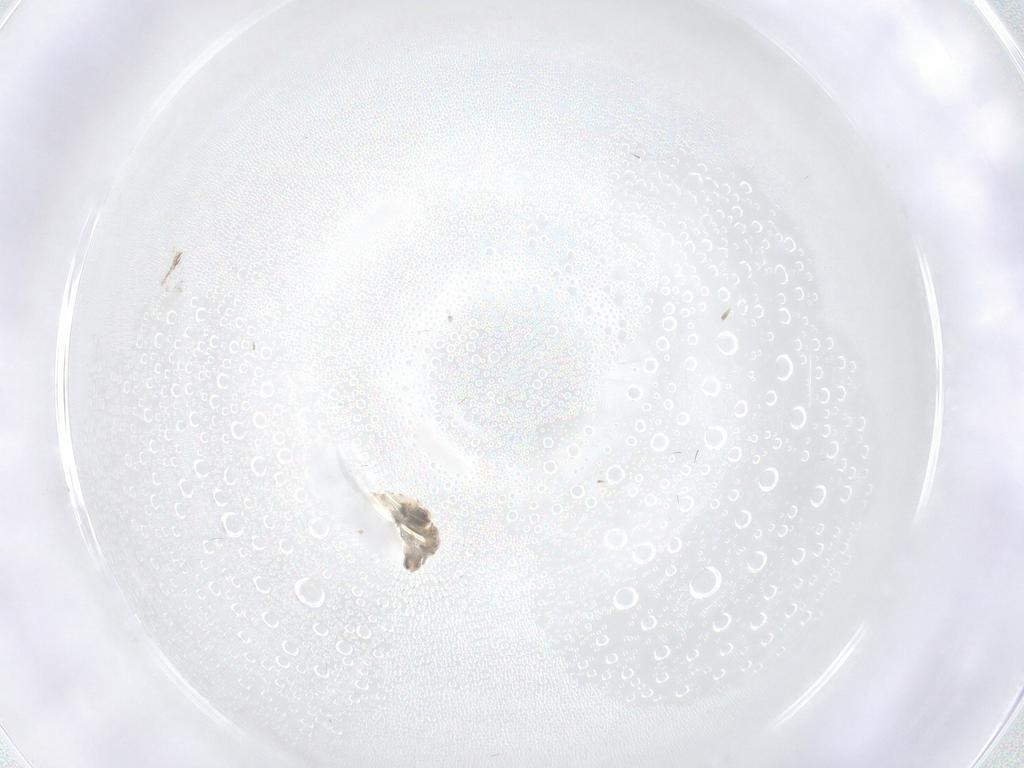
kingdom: Animalia
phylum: Arthropoda
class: Insecta
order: Diptera
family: Cecidomyiidae
